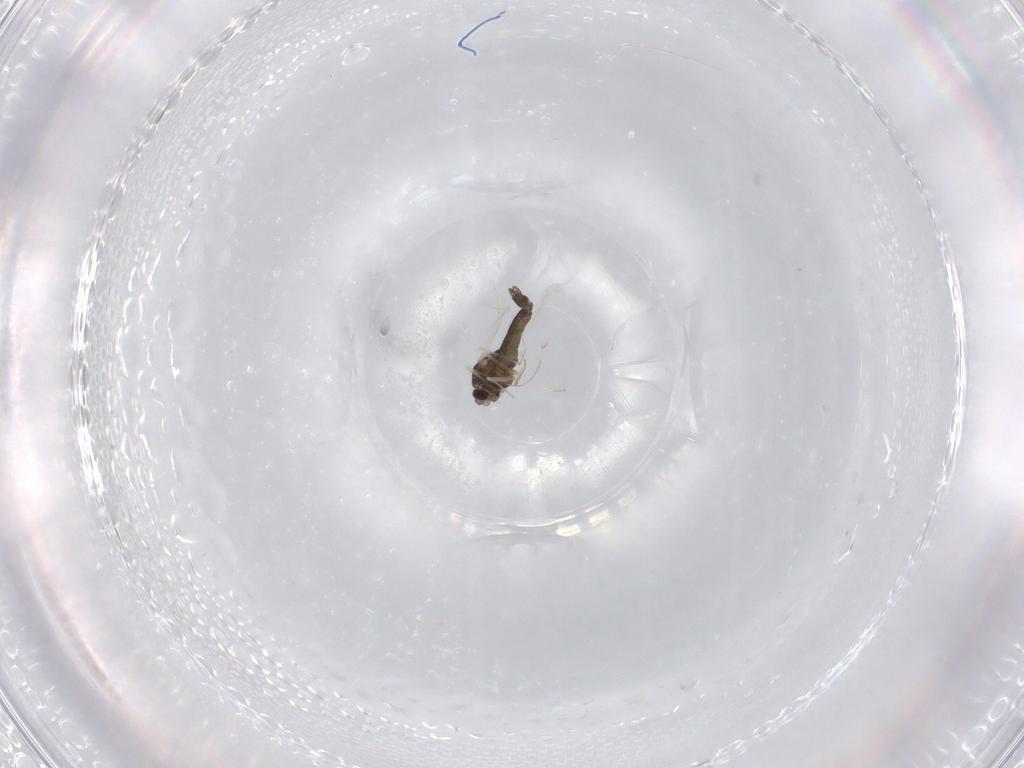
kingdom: Animalia
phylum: Arthropoda
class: Insecta
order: Diptera
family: Chironomidae
